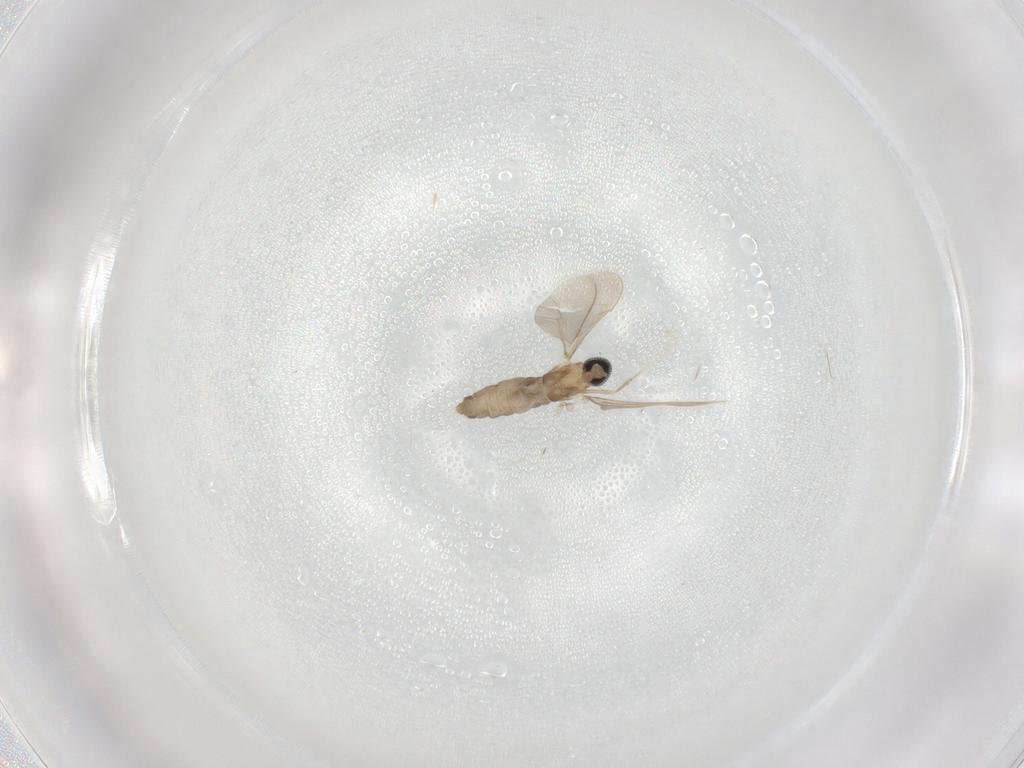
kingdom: Animalia
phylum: Arthropoda
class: Insecta
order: Diptera
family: Cecidomyiidae
